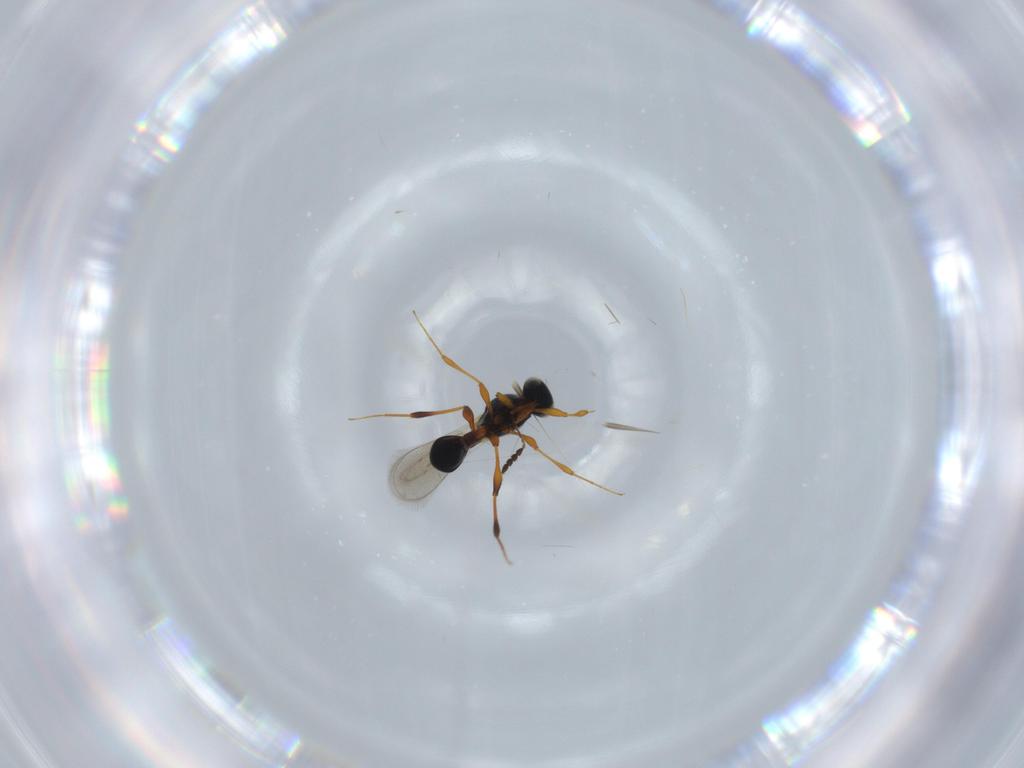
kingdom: Animalia
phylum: Arthropoda
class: Insecta
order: Hymenoptera
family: Platygastridae
